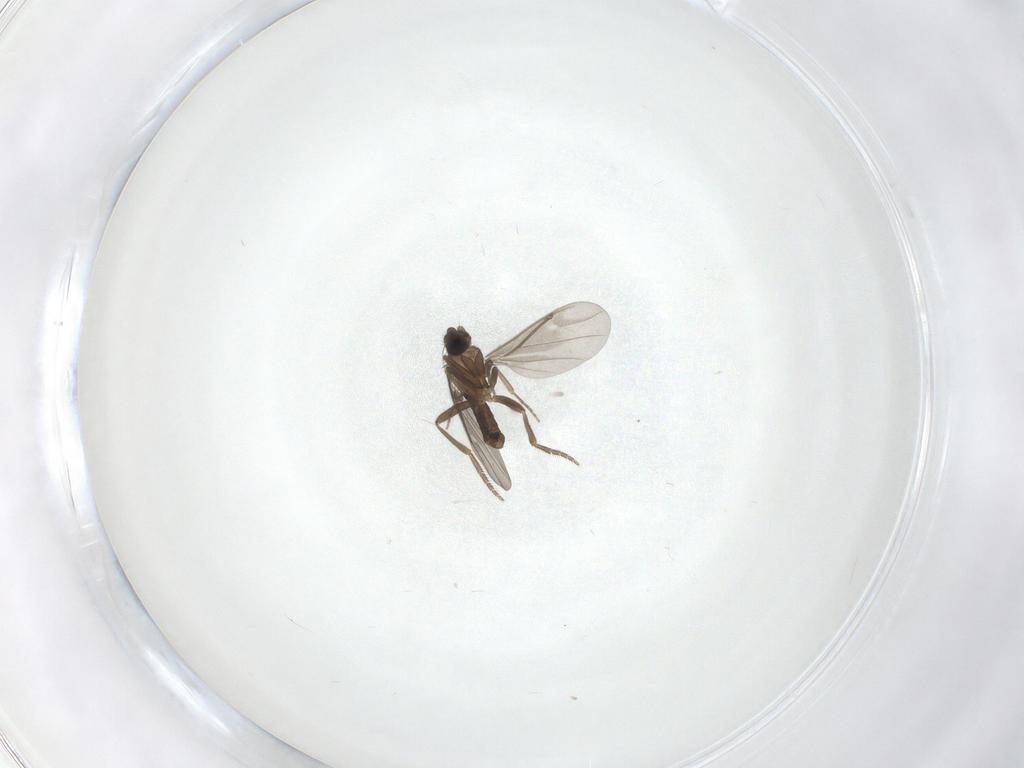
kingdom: Animalia
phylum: Arthropoda
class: Insecta
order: Diptera
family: Phoridae
